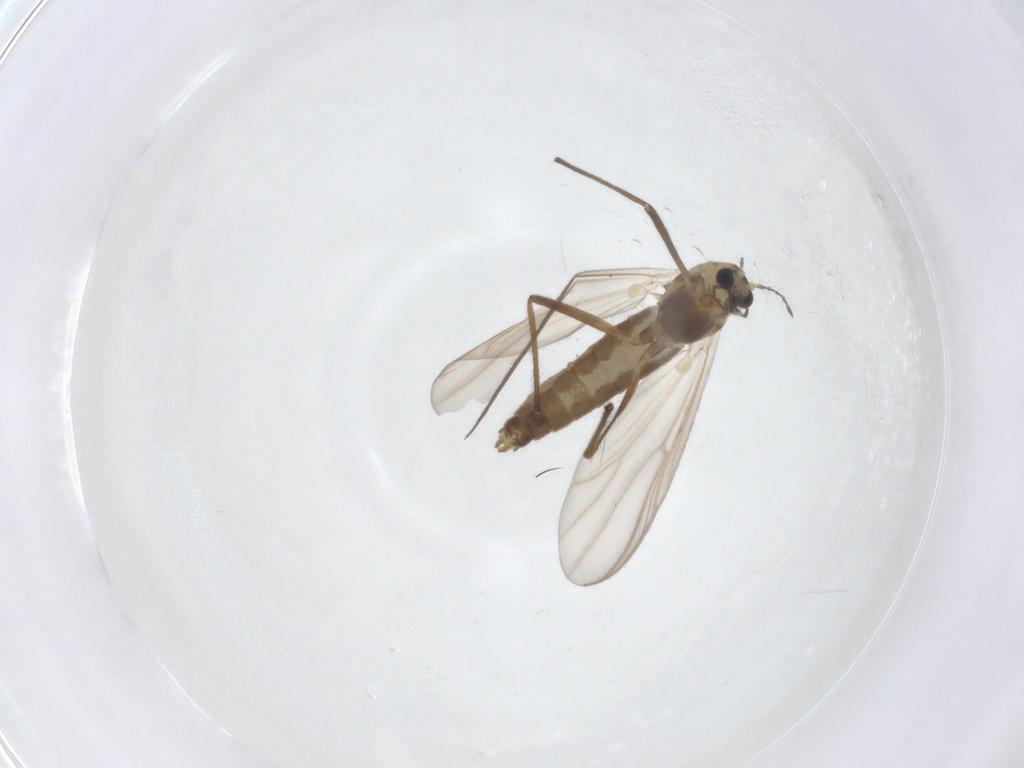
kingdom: Animalia
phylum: Arthropoda
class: Insecta
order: Diptera
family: Chironomidae
